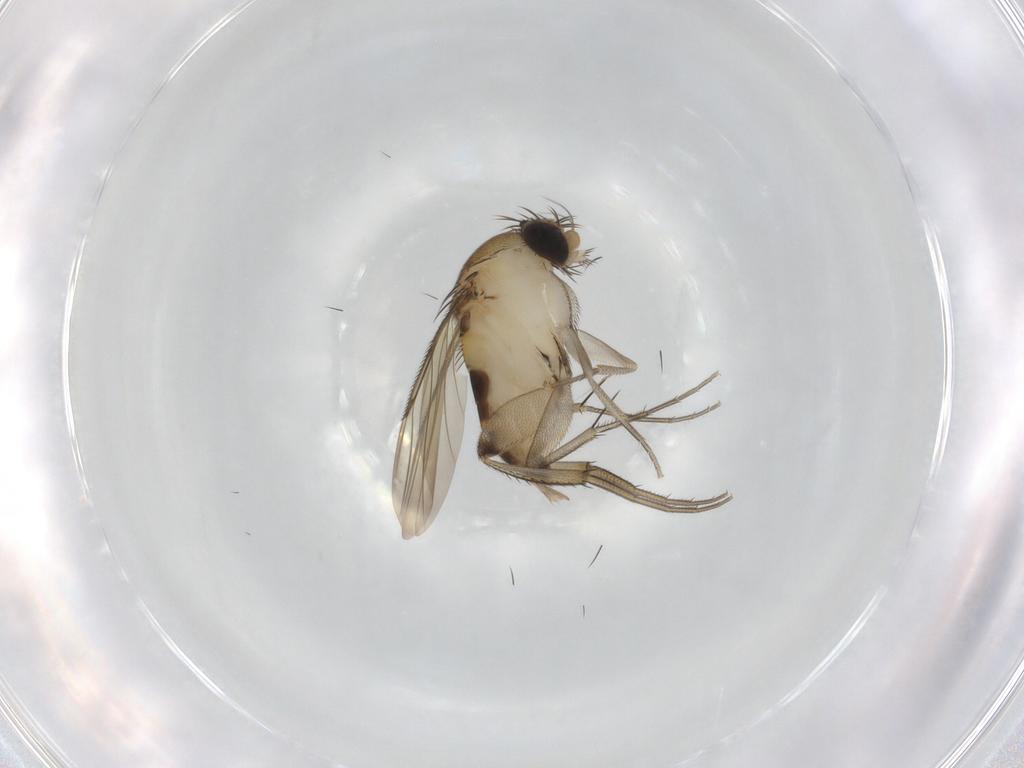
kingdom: Animalia
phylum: Arthropoda
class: Insecta
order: Diptera
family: Phoridae
